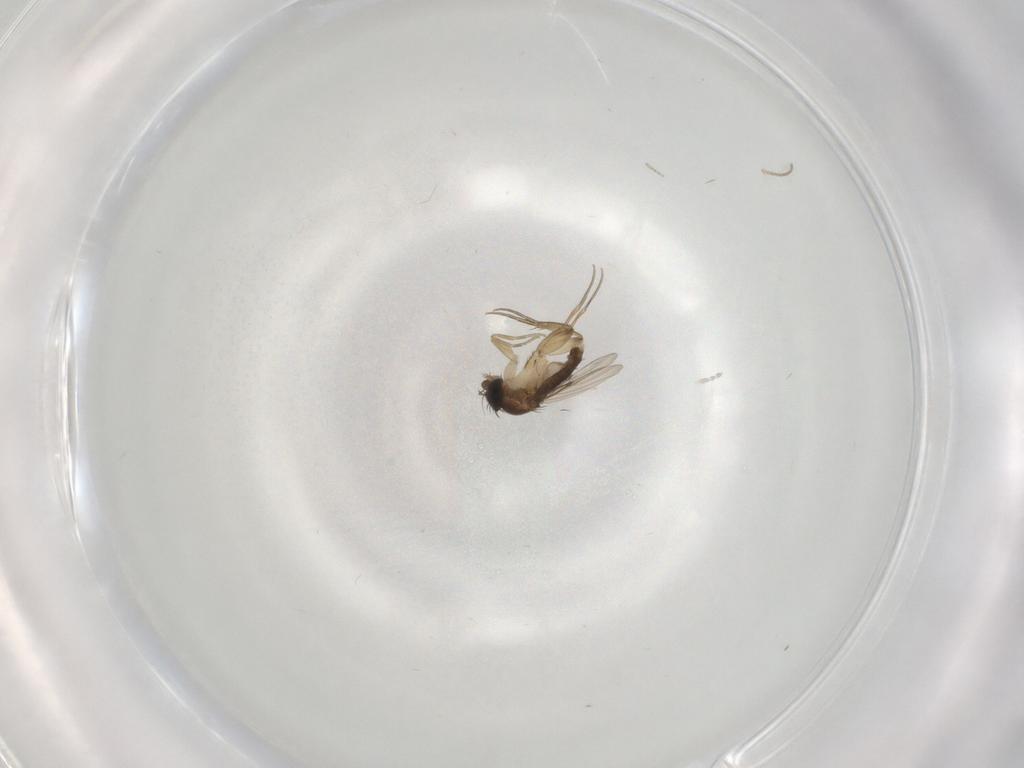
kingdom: Animalia
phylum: Arthropoda
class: Insecta
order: Diptera
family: Phoridae
